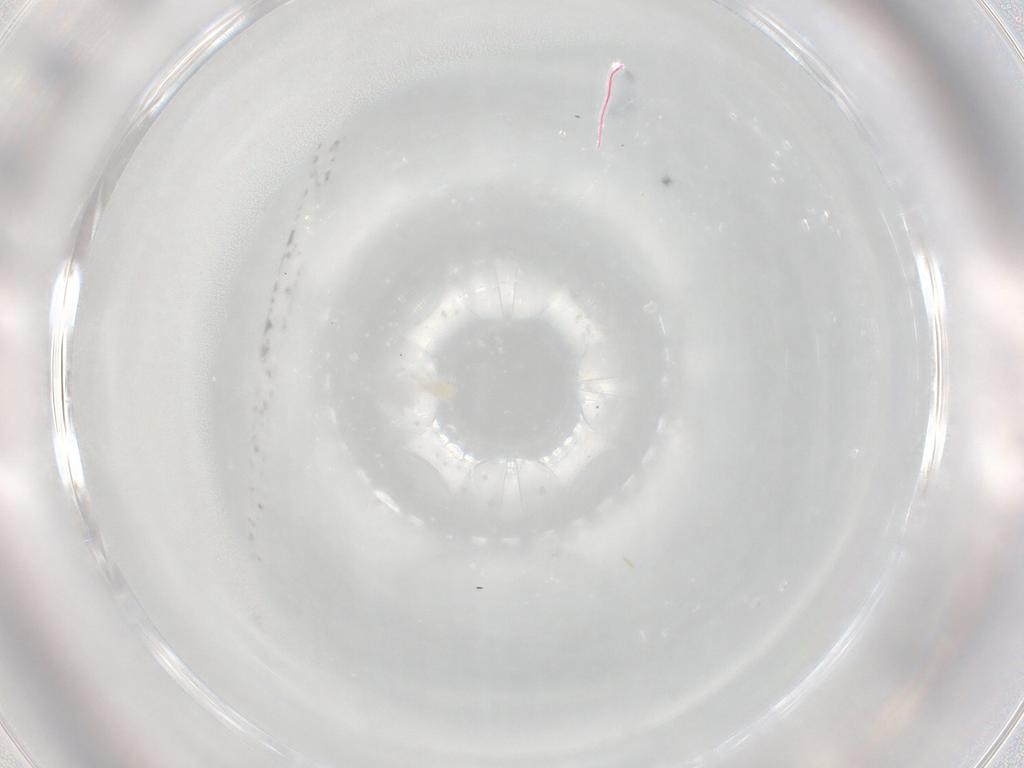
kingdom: Animalia
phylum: Arthropoda
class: Arachnida
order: Trombidiformes
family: Rhagidiidae
